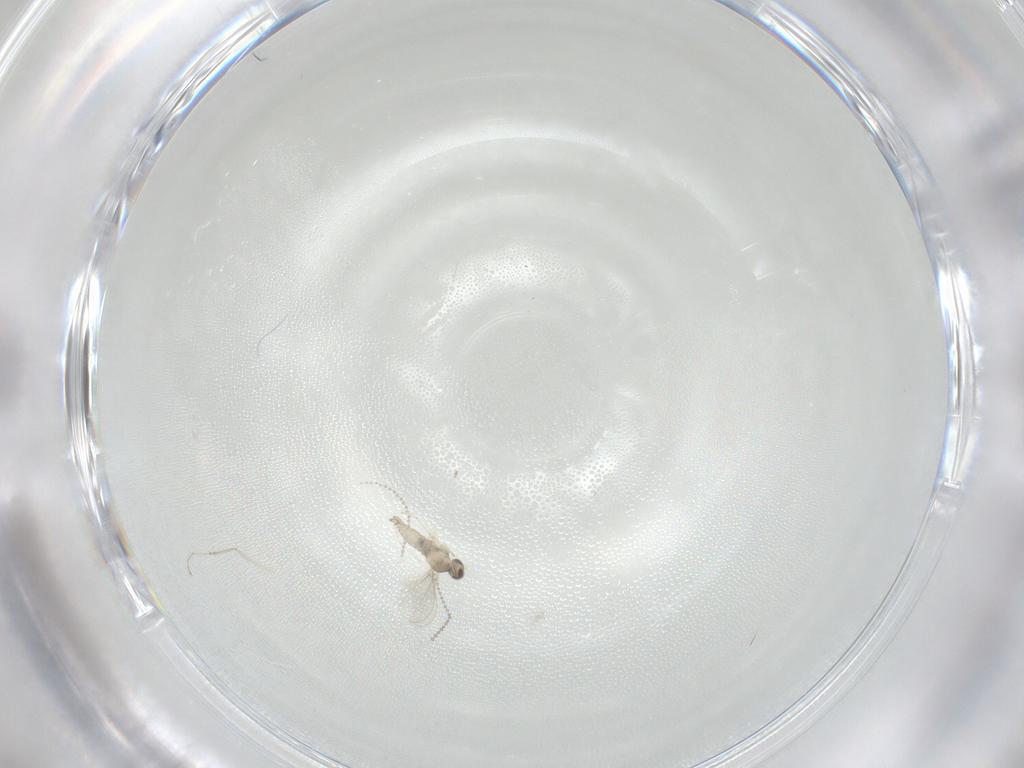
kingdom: Animalia
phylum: Arthropoda
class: Insecta
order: Diptera
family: Cecidomyiidae
